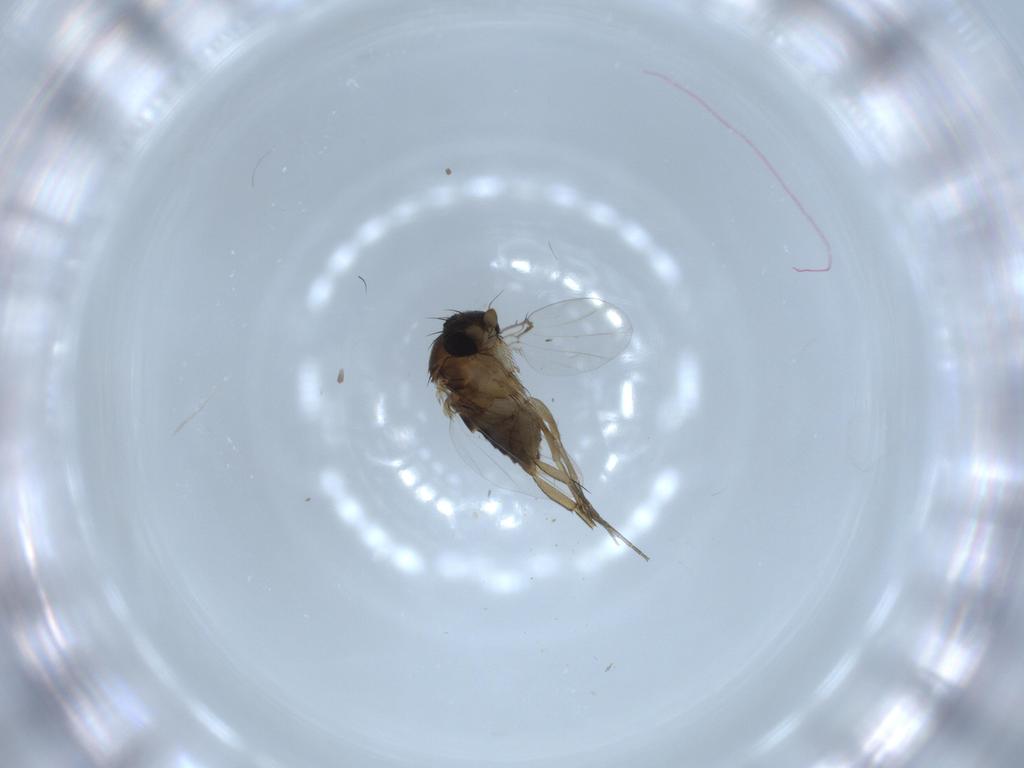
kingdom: Animalia
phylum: Arthropoda
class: Insecta
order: Diptera
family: Phoridae
